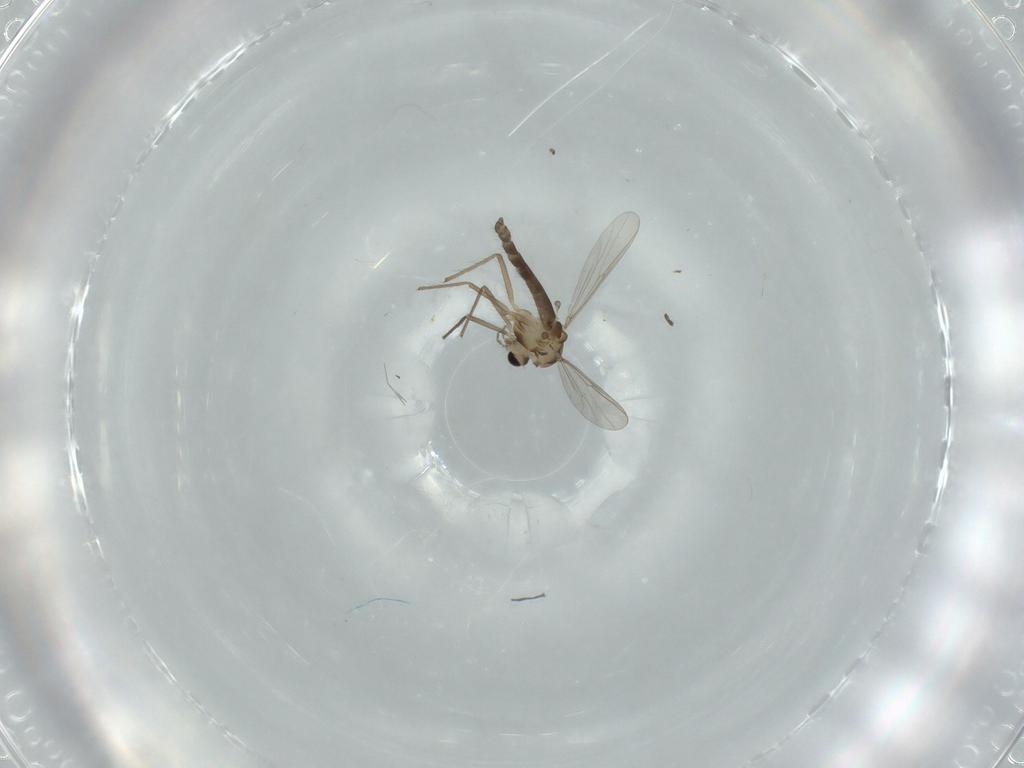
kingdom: Animalia
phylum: Arthropoda
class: Insecta
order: Diptera
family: Chironomidae
